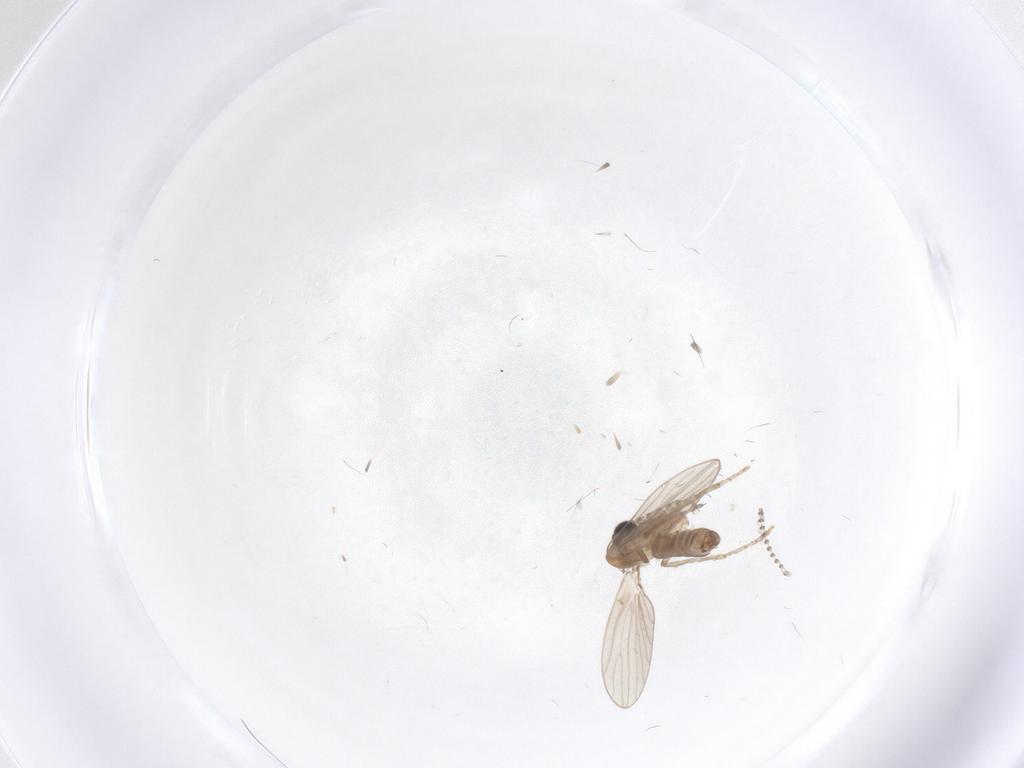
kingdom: Animalia
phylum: Arthropoda
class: Insecta
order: Diptera
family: Psychodidae
